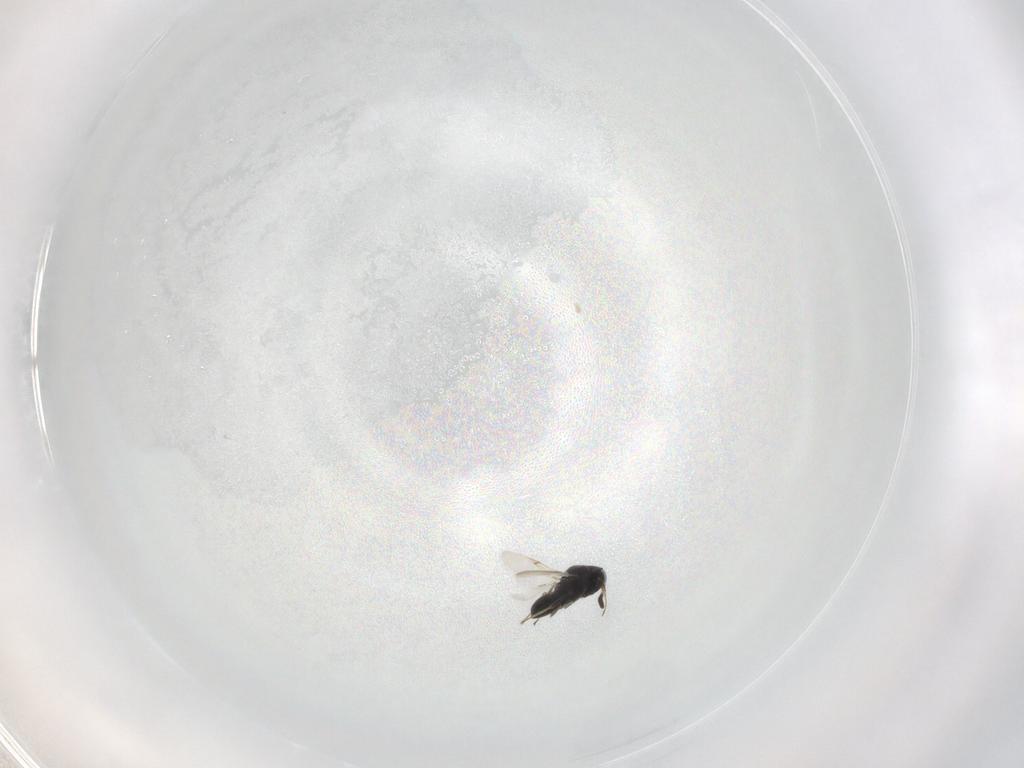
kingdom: Animalia
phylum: Arthropoda
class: Insecta
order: Hymenoptera
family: Scelionidae
